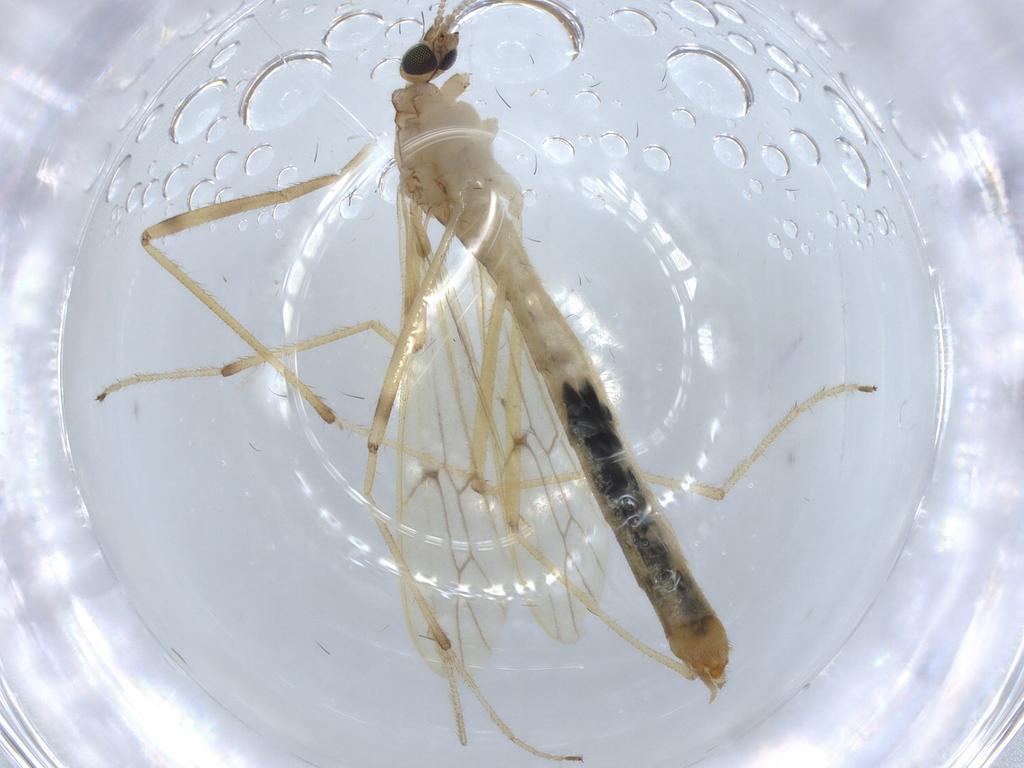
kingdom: Animalia
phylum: Arthropoda
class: Insecta
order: Diptera
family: Limoniidae
